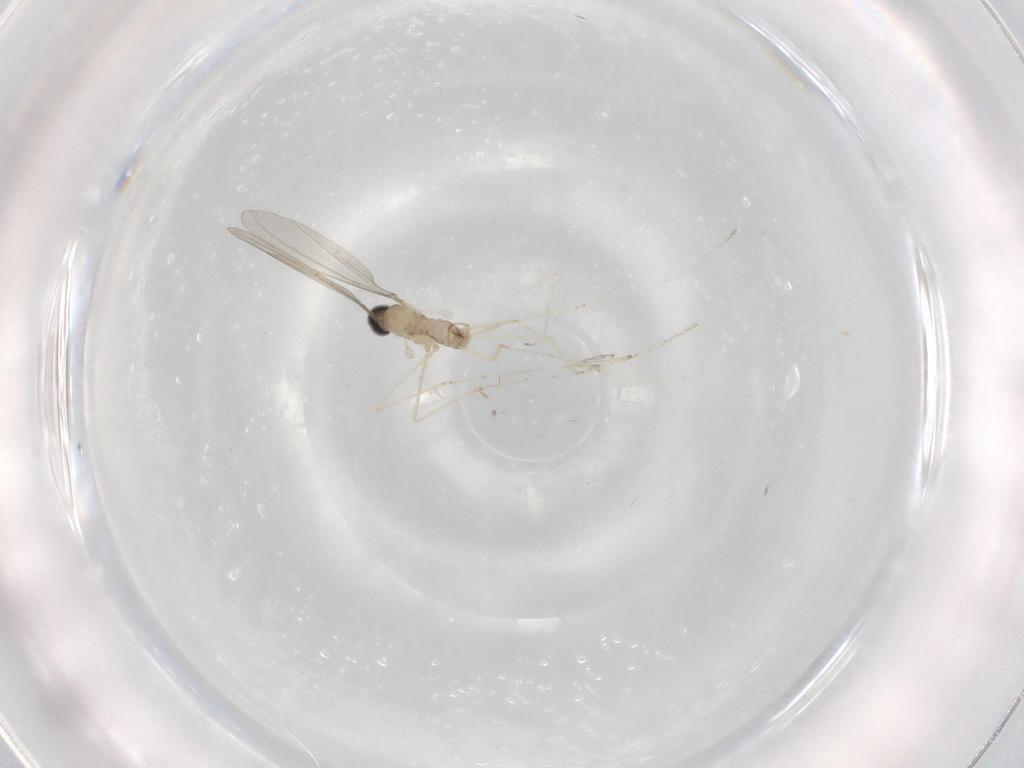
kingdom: Animalia
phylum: Arthropoda
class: Insecta
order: Diptera
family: Cecidomyiidae
